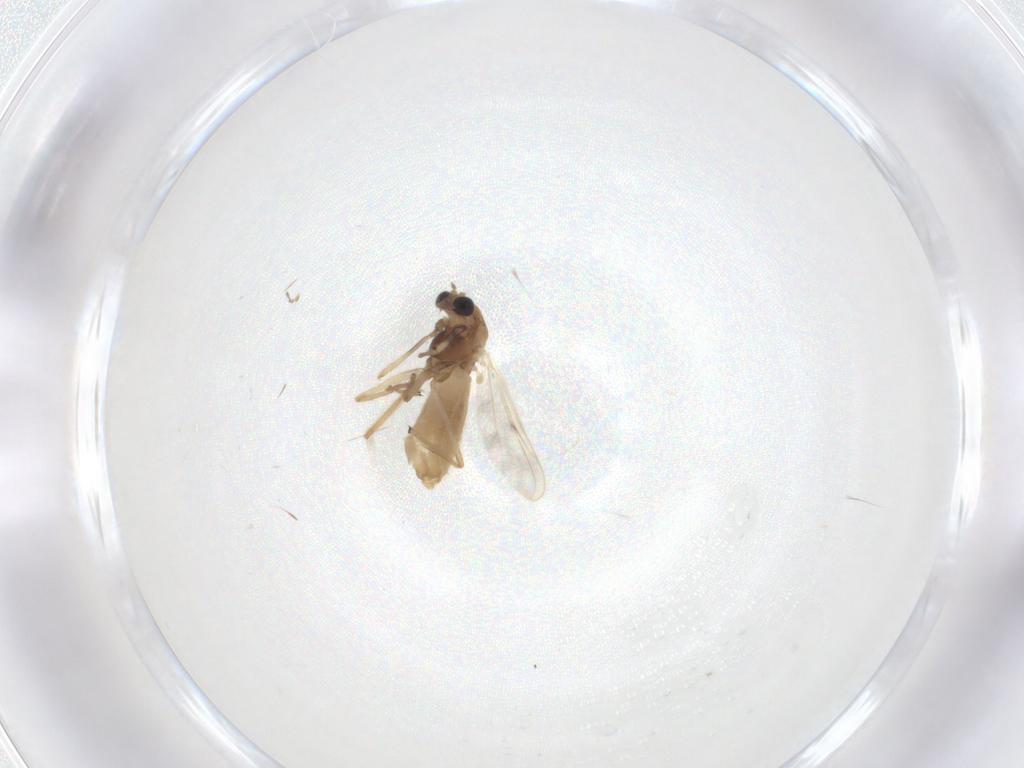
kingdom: Animalia
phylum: Arthropoda
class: Insecta
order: Diptera
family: Chironomidae
